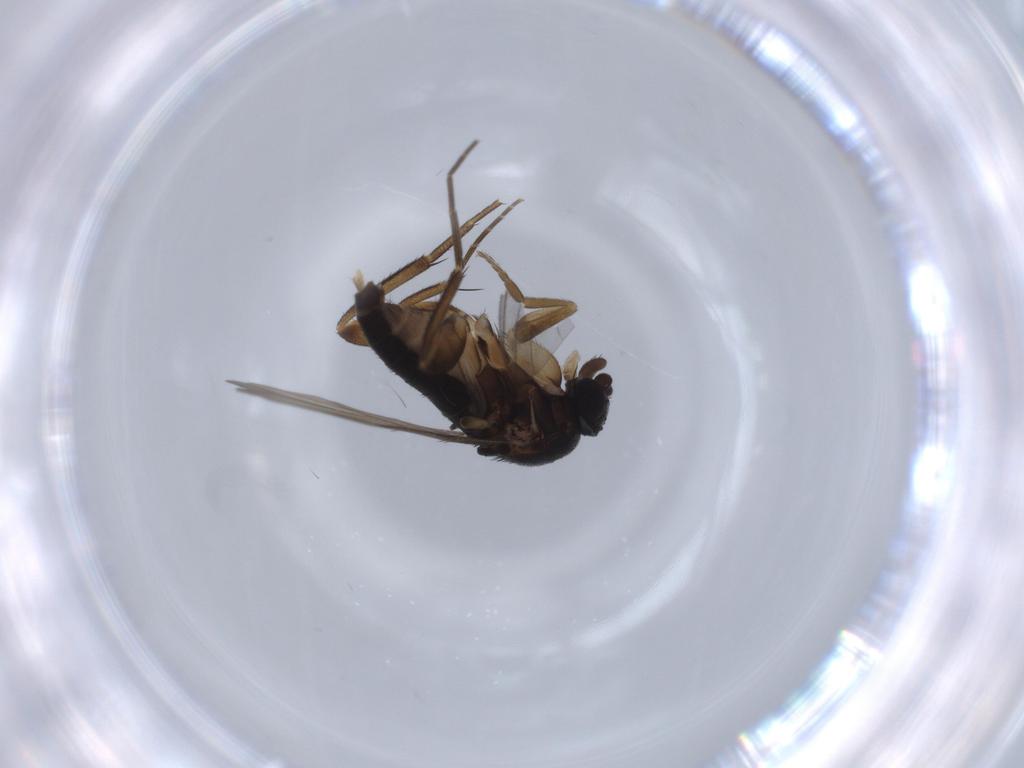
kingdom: Animalia
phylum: Arthropoda
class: Insecta
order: Diptera
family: Phoridae
